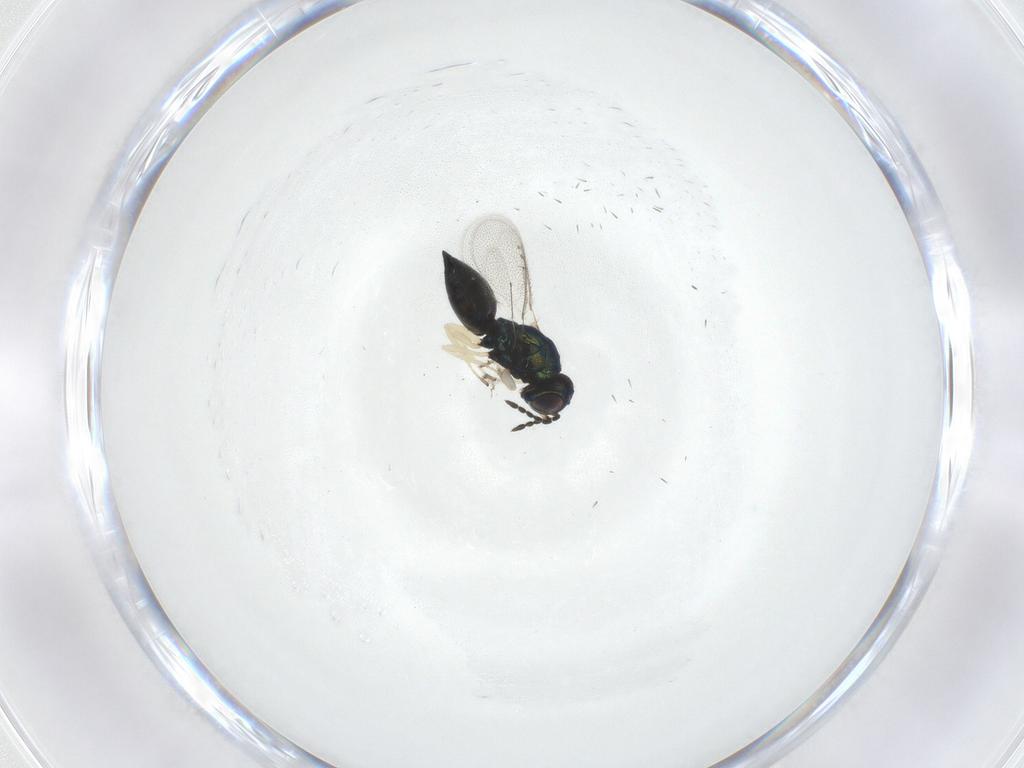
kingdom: Animalia
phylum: Arthropoda
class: Insecta
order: Hymenoptera
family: Eulophidae
